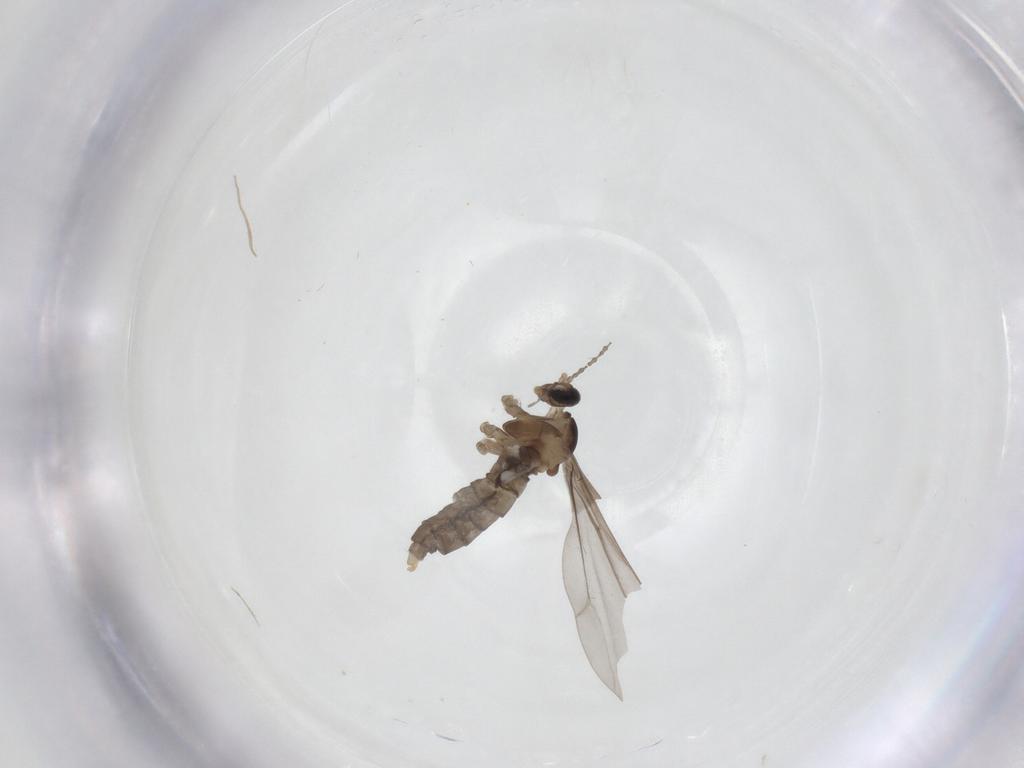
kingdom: Animalia
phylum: Arthropoda
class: Insecta
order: Diptera
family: Cecidomyiidae
